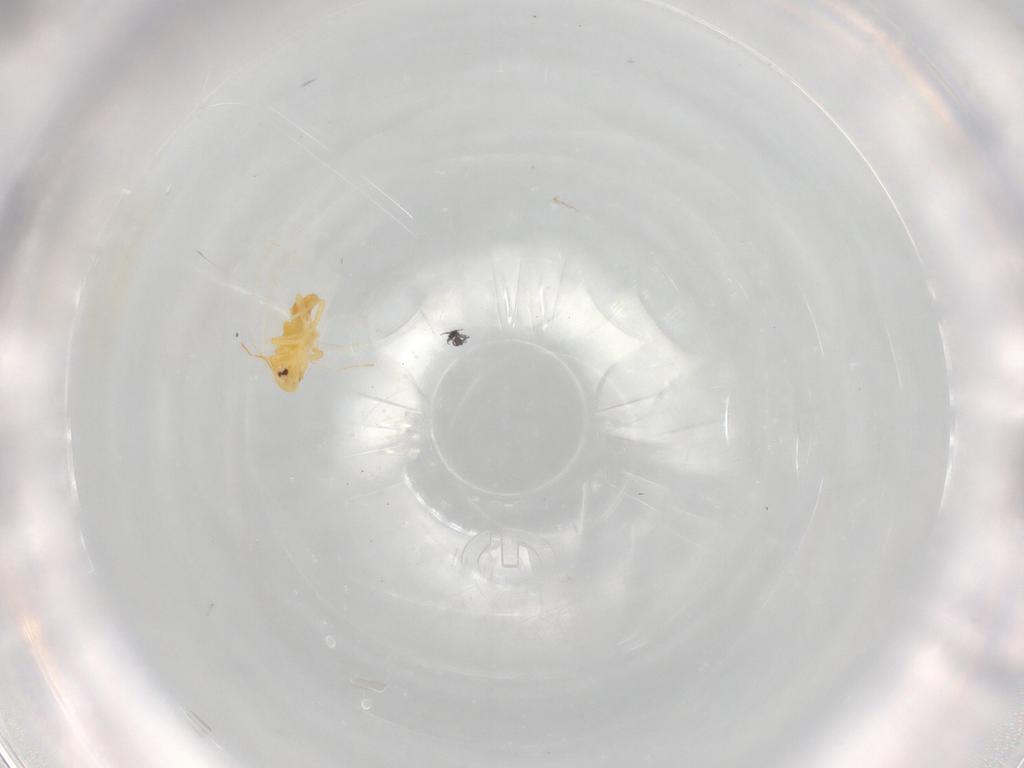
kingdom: Animalia
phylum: Arthropoda
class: Insecta
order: Hemiptera
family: Aleyrodidae
